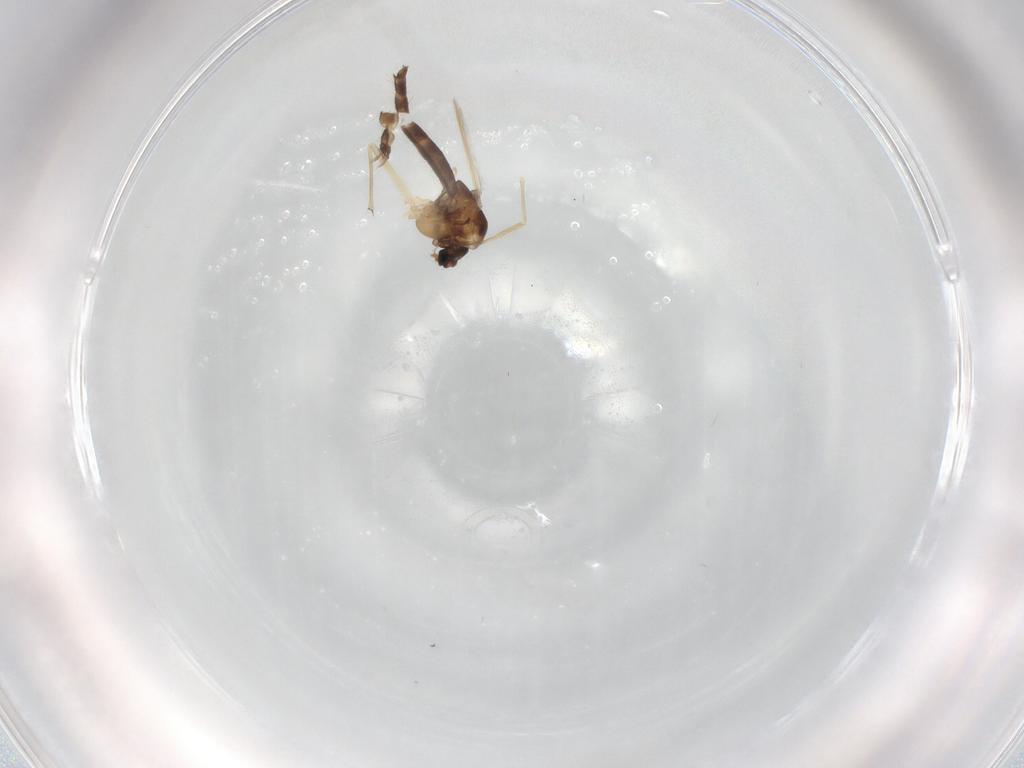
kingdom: Animalia
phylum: Arthropoda
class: Insecta
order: Diptera
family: Chironomidae
